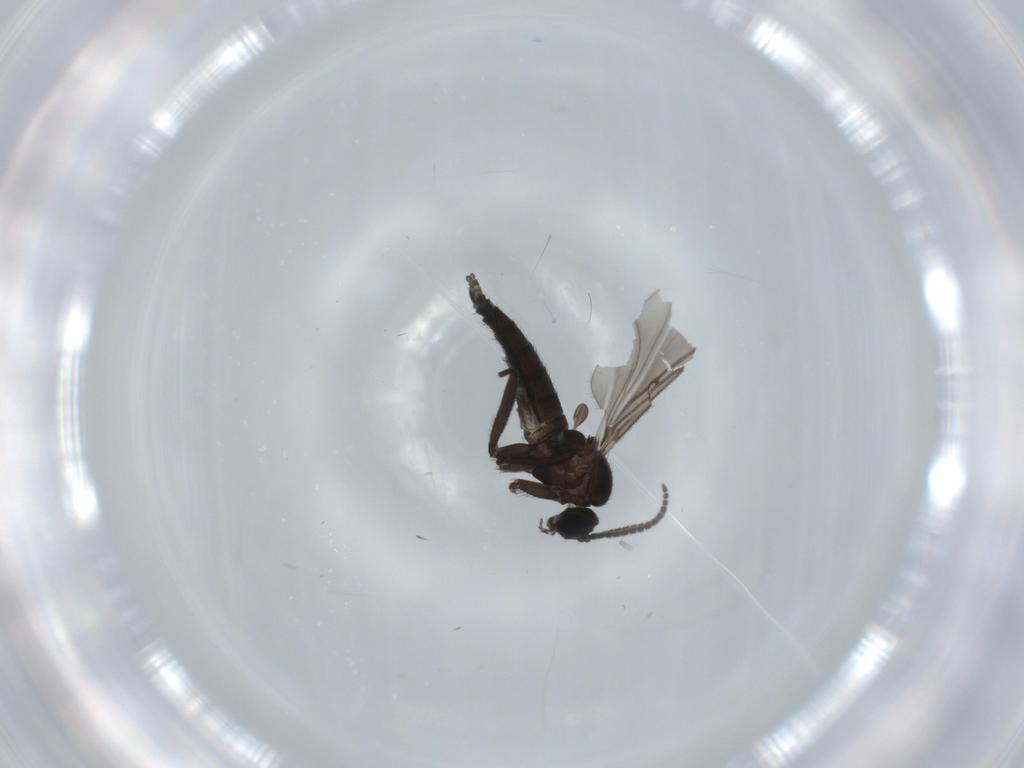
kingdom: Animalia
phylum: Arthropoda
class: Insecta
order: Diptera
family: Sciaridae
